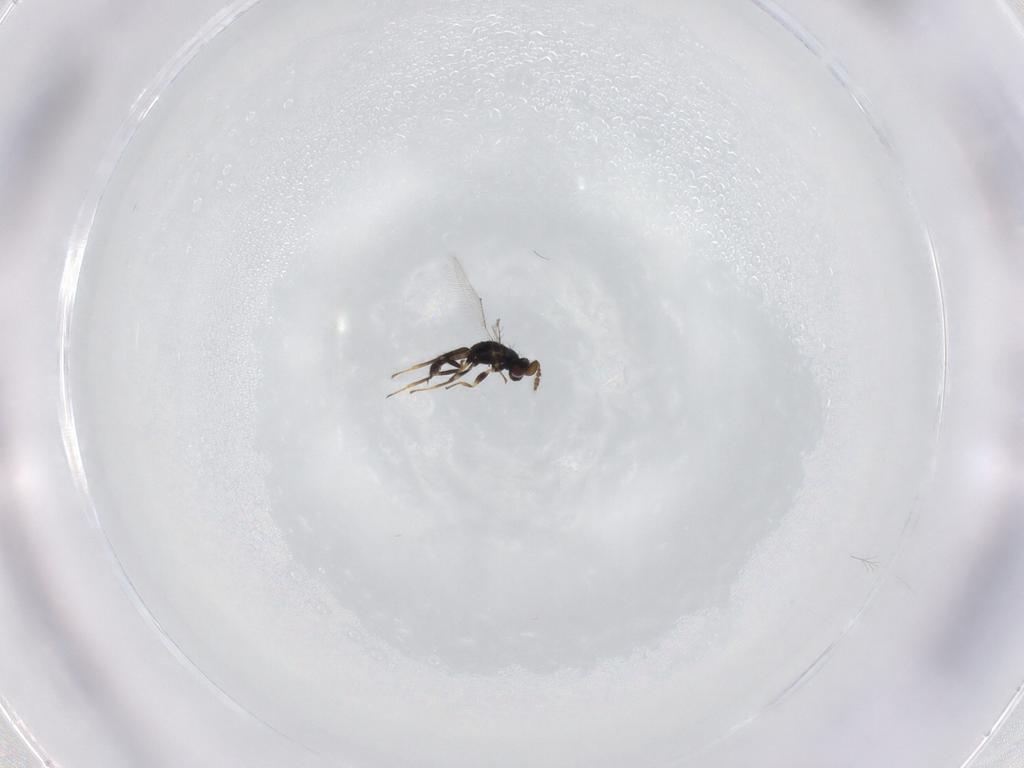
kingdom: Animalia
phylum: Arthropoda
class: Insecta
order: Hymenoptera
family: Eulophidae
